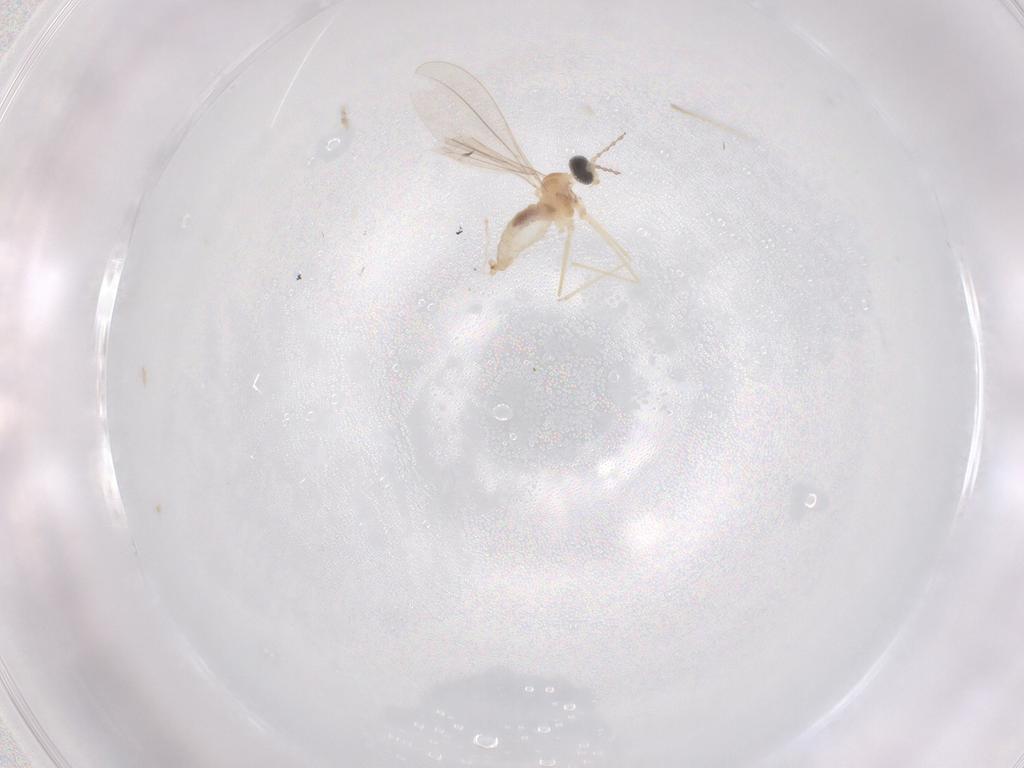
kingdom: Animalia
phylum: Arthropoda
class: Insecta
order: Diptera
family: Cecidomyiidae
